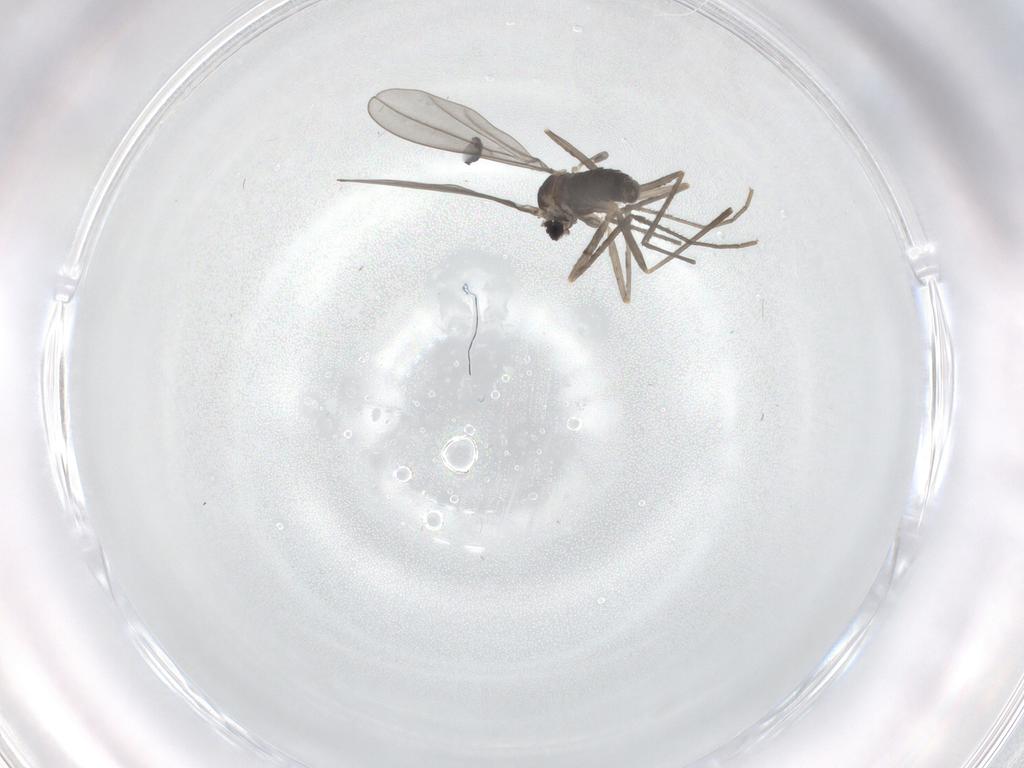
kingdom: Animalia
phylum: Arthropoda
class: Insecta
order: Diptera
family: Cecidomyiidae
